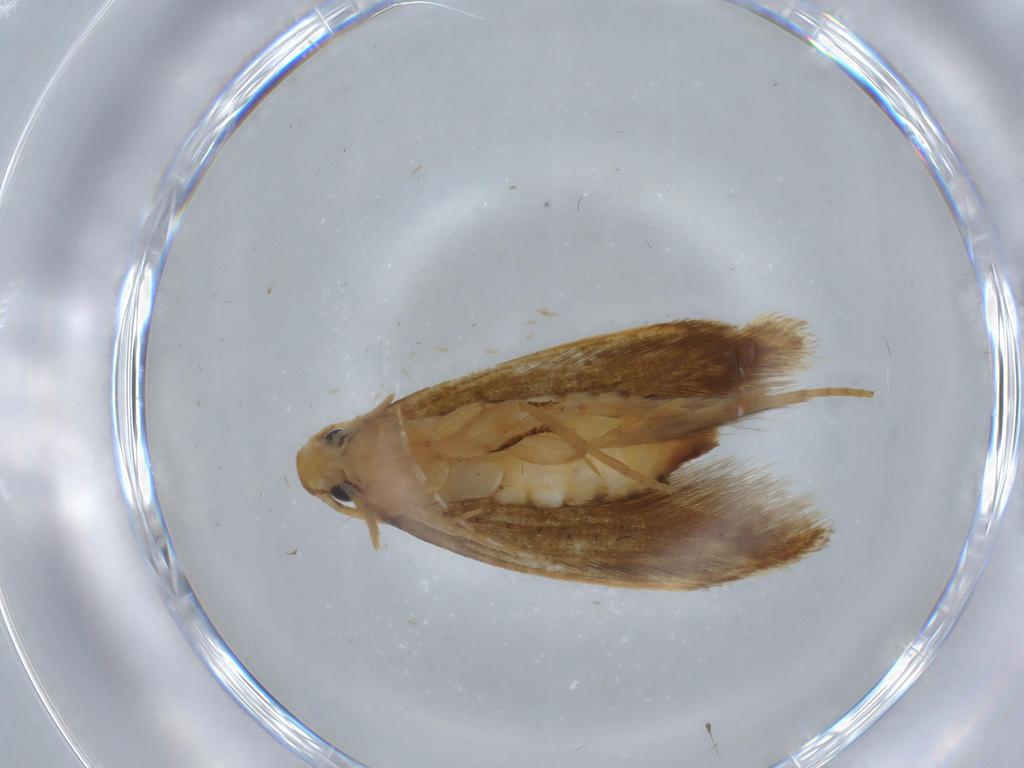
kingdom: Animalia
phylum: Arthropoda
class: Insecta
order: Lepidoptera
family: Tineidae
